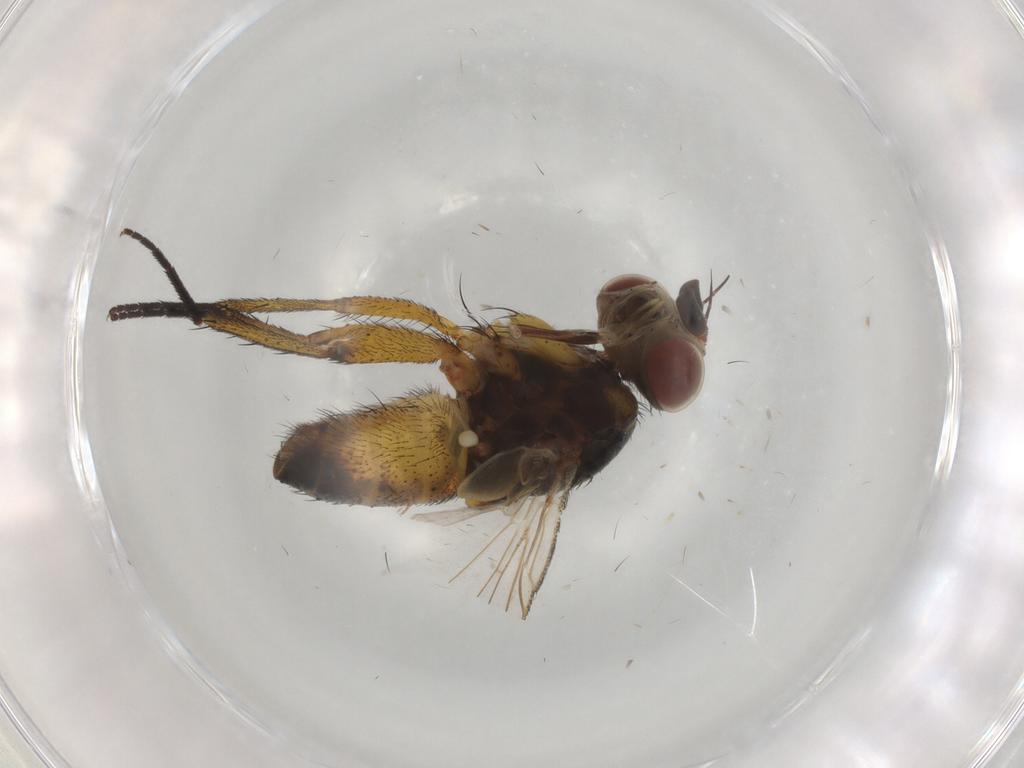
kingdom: Animalia
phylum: Arthropoda
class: Insecta
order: Diptera
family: Tachinidae
